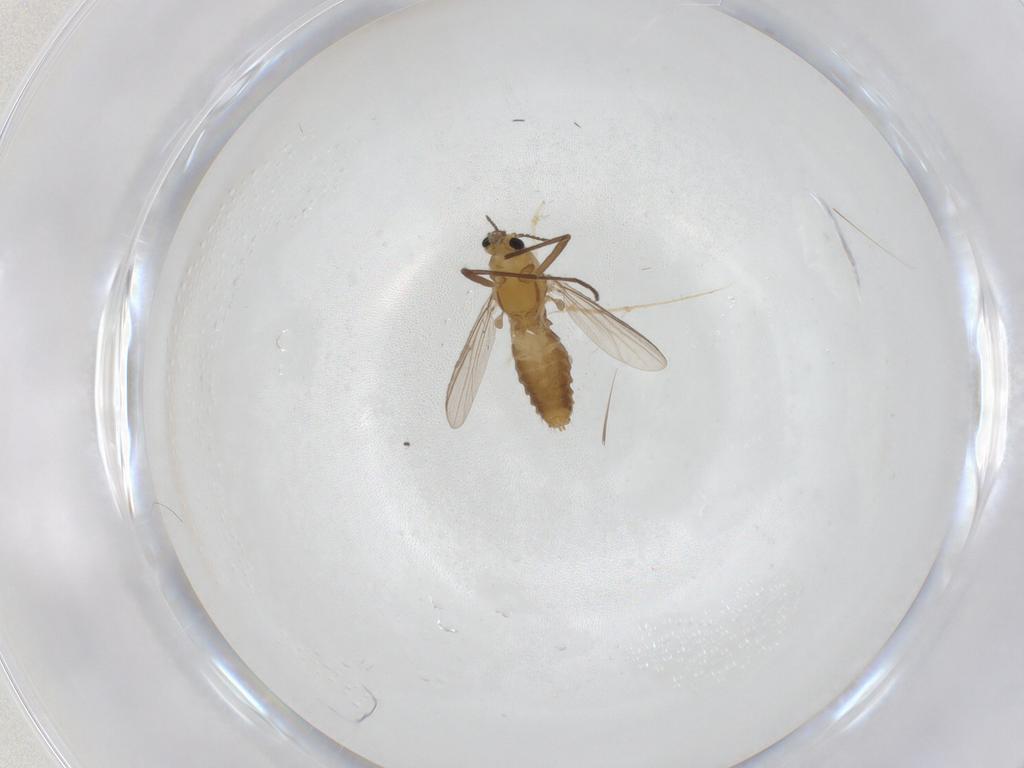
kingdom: Animalia
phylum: Arthropoda
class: Insecta
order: Diptera
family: Chironomidae
